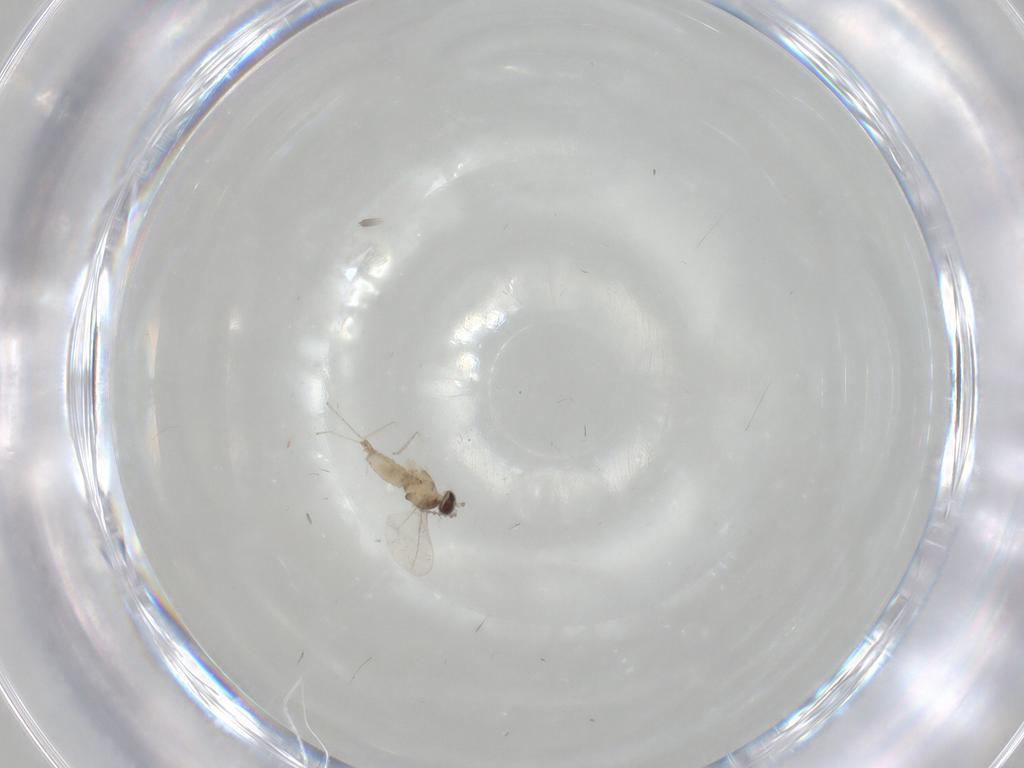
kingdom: Animalia
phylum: Arthropoda
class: Insecta
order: Diptera
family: Cecidomyiidae
